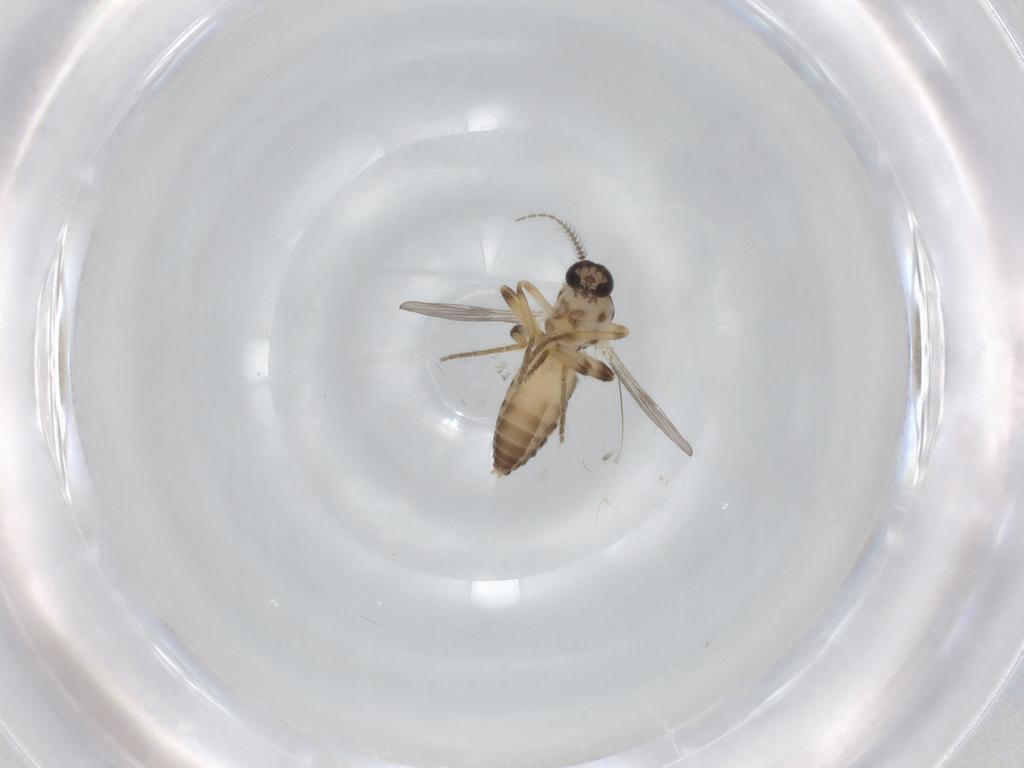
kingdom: Animalia
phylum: Arthropoda
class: Insecta
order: Diptera
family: Ceratopogonidae
